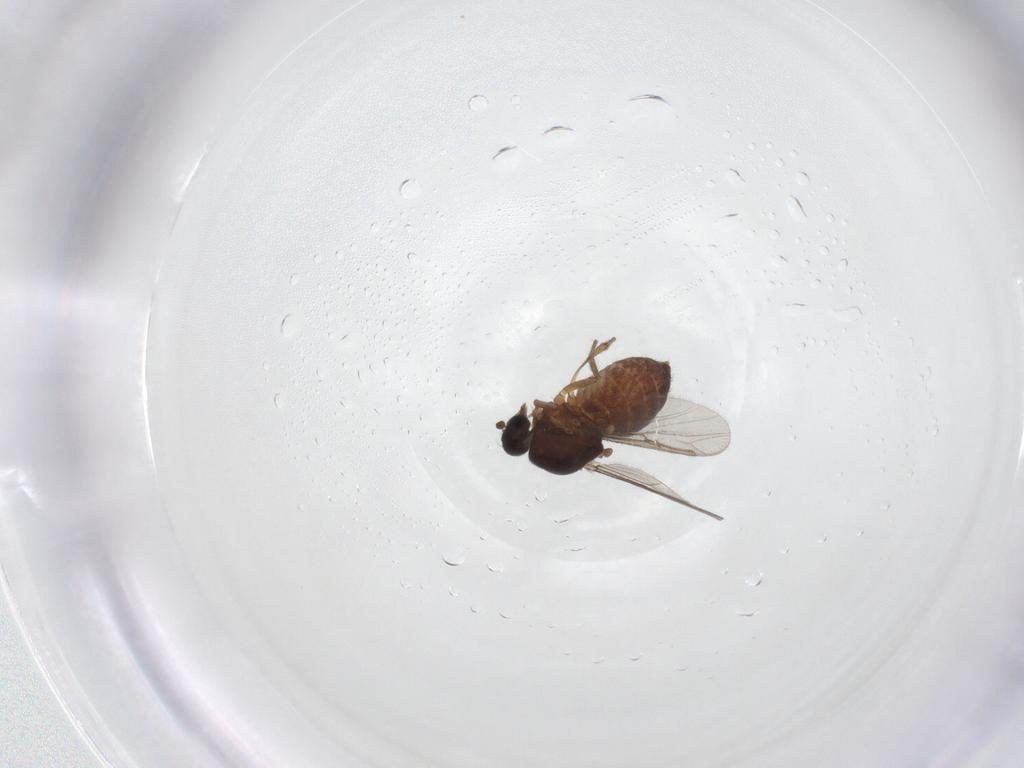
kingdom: Animalia
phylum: Arthropoda
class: Insecta
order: Diptera
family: Ceratopogonidae
